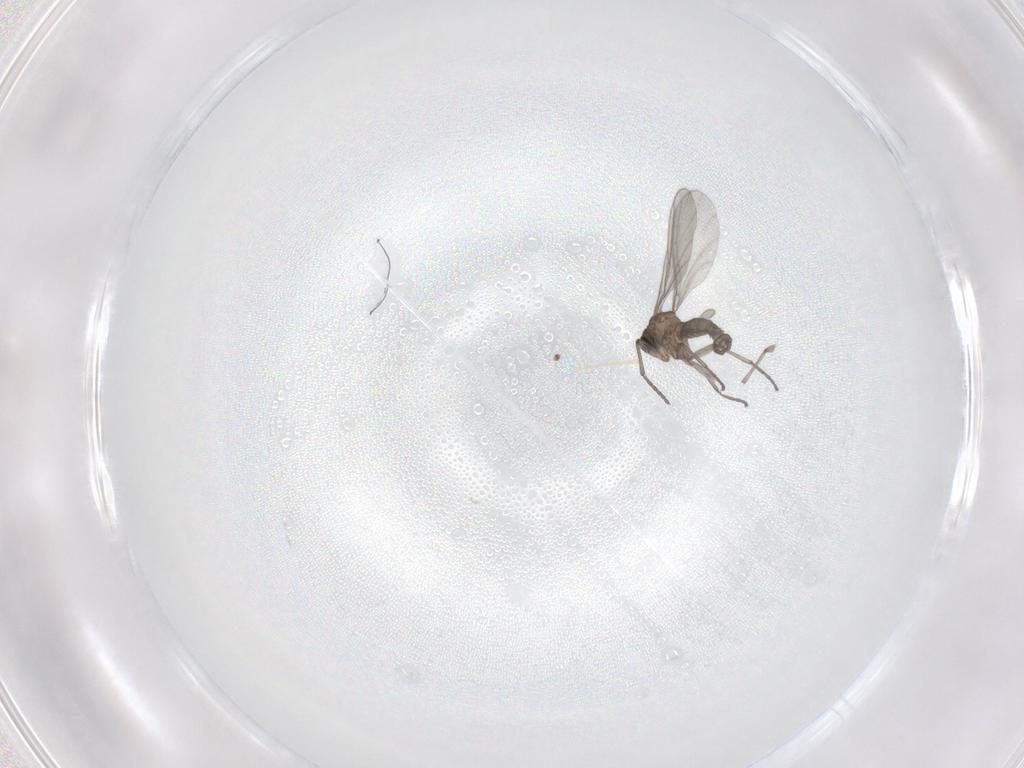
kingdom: Animalia
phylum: Arthropoda
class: Insecta
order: Diptera
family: Sciaridae
